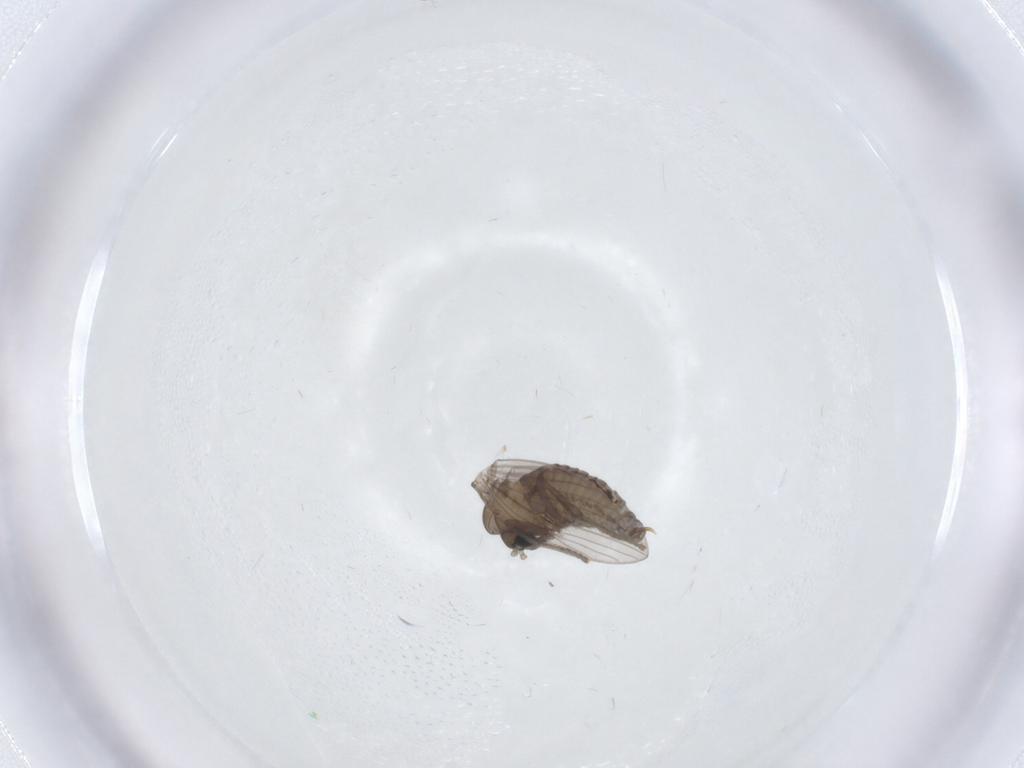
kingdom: Animalia
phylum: Arthropoda
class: Insecta
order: Diptera
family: Psychodidae
